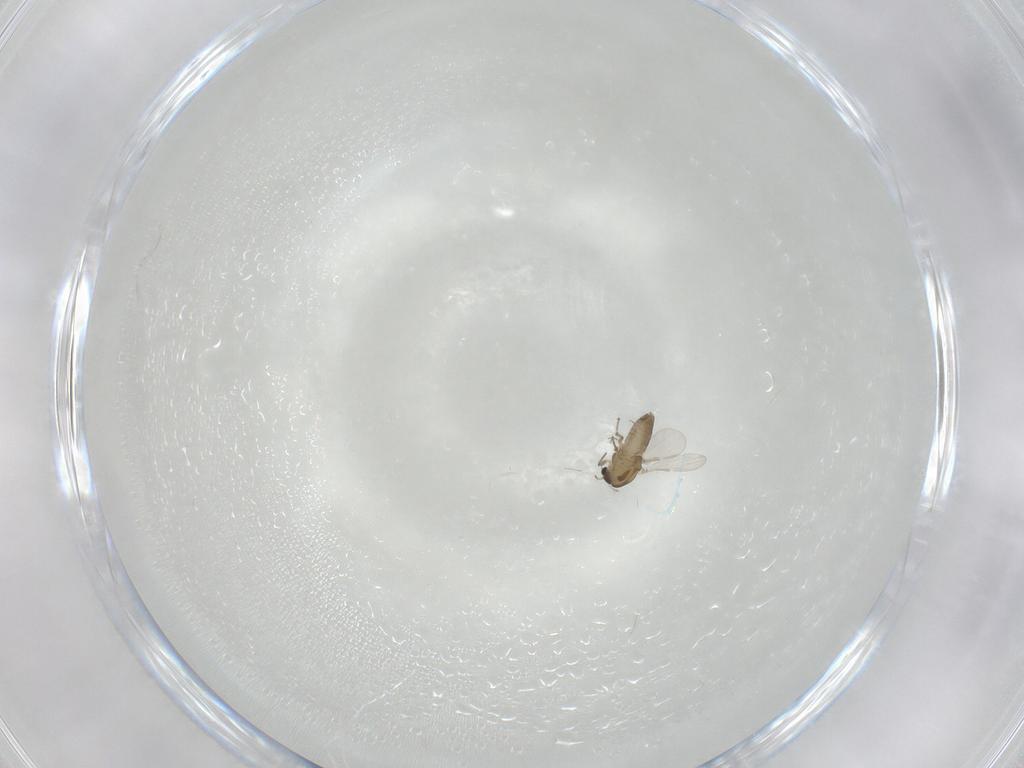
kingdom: Animalia
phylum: Arthropoda
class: Insecta
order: Diptera
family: Chironomidae
